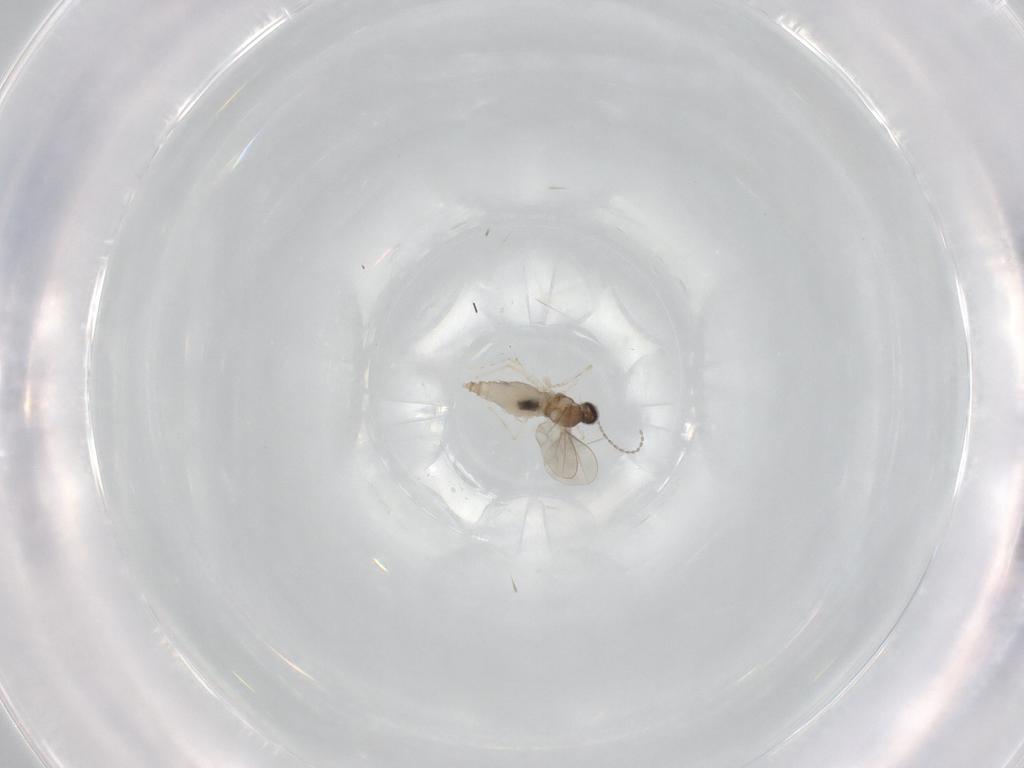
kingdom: Animalia
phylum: Arthropoda
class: Insecta
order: Diptera
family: Cecidomyiidae
